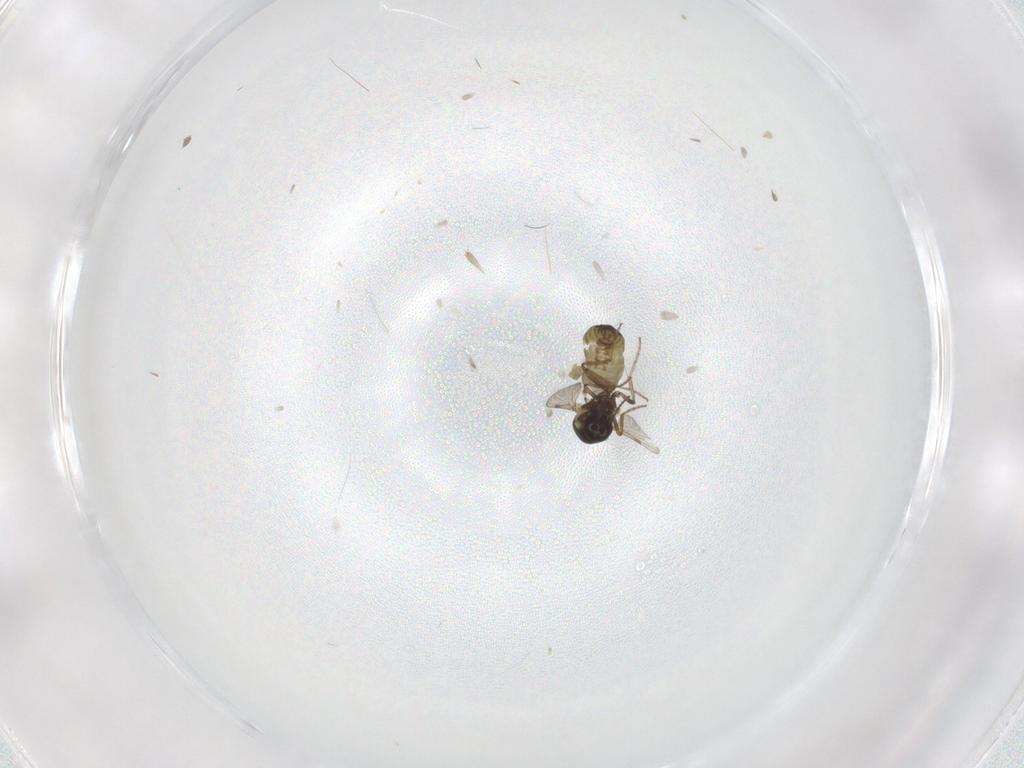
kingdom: Animalia
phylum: Arthropoda
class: Insecta
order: Diptera
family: Ceratopogonidae
